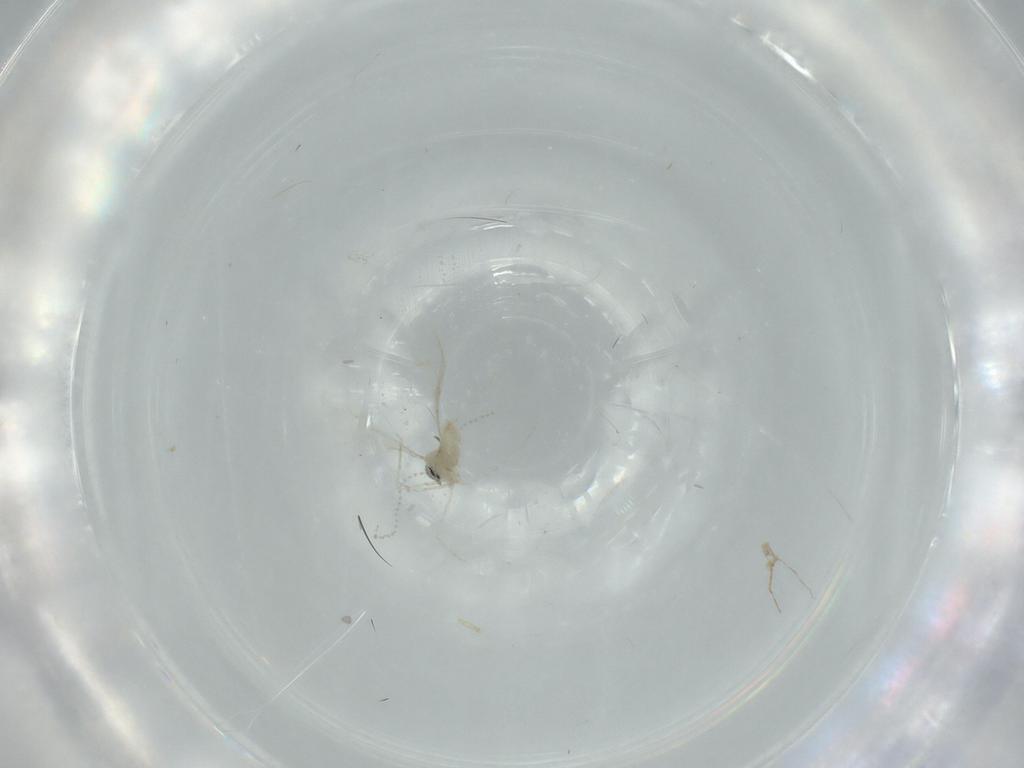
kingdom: Animalia
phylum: Arthropoda
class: Insecta
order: Diptera
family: Cecidomyiidae
